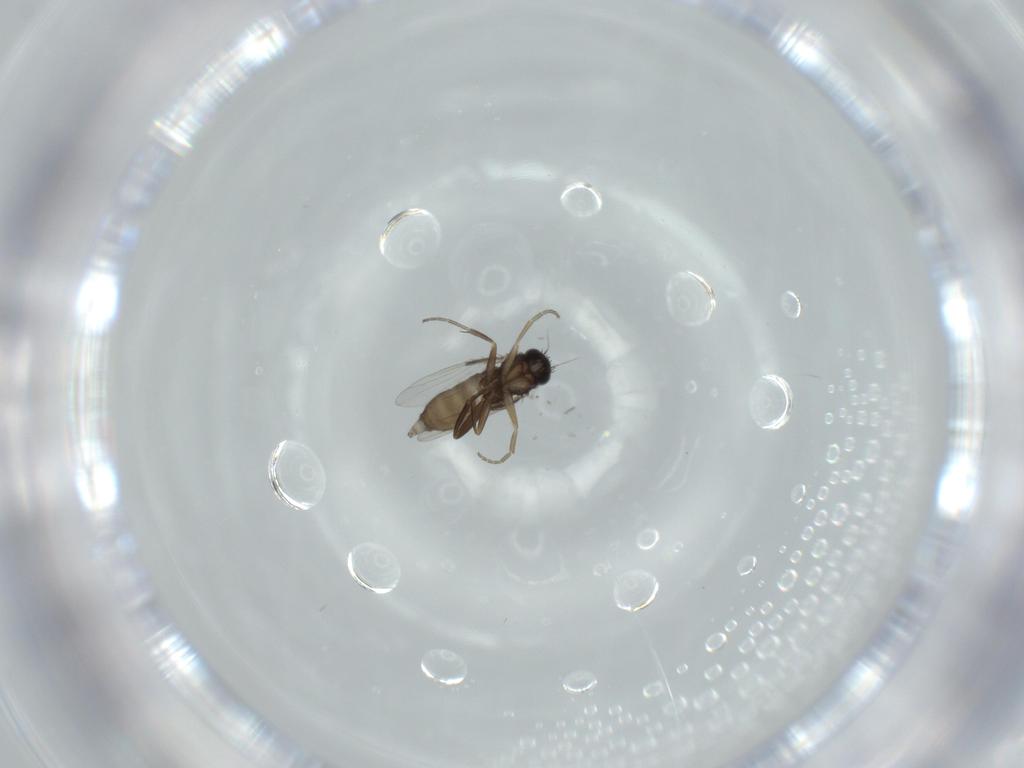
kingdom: Animalia
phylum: Arthropoda
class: Insecta
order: Diptera
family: Phoridae
